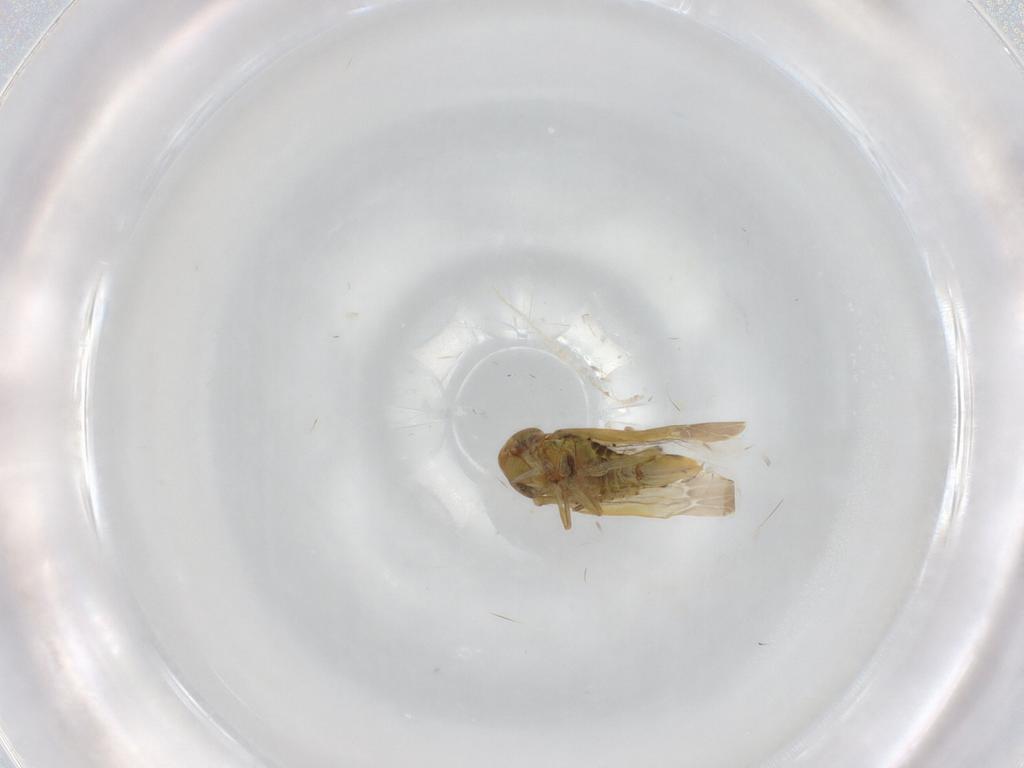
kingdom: Animalia
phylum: Arthropoda
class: Insecta
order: Hemiptera
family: Cicadellidae
